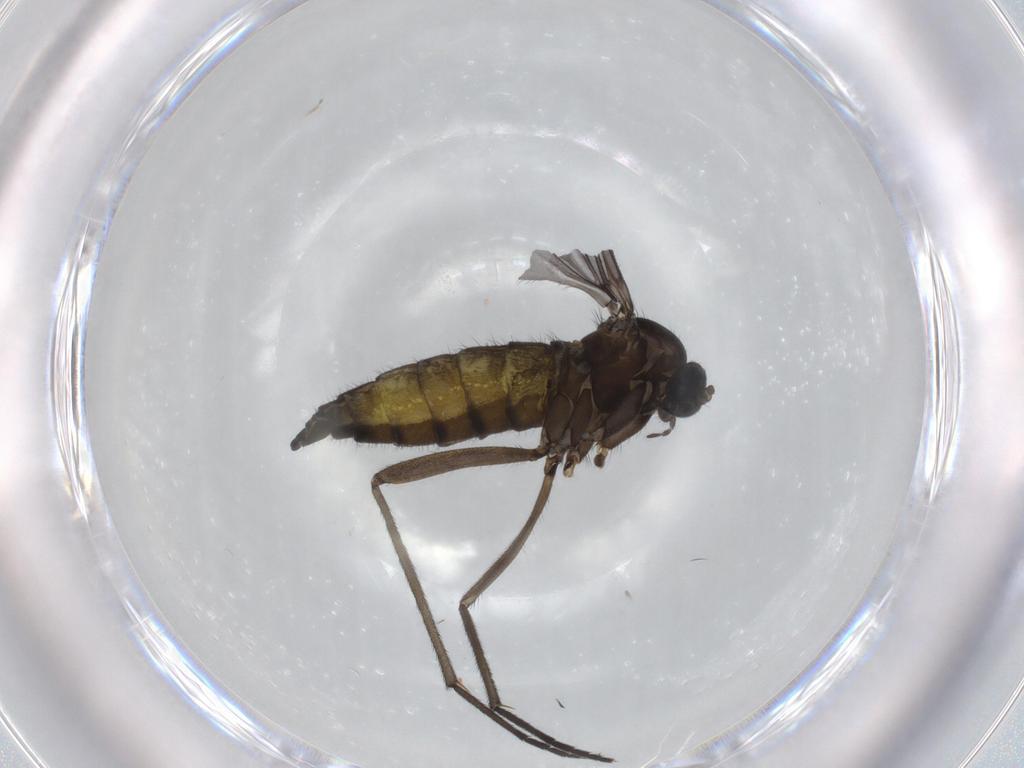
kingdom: Animalia
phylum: Arthropoda
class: Insecta
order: Diptera
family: Sciaridae
